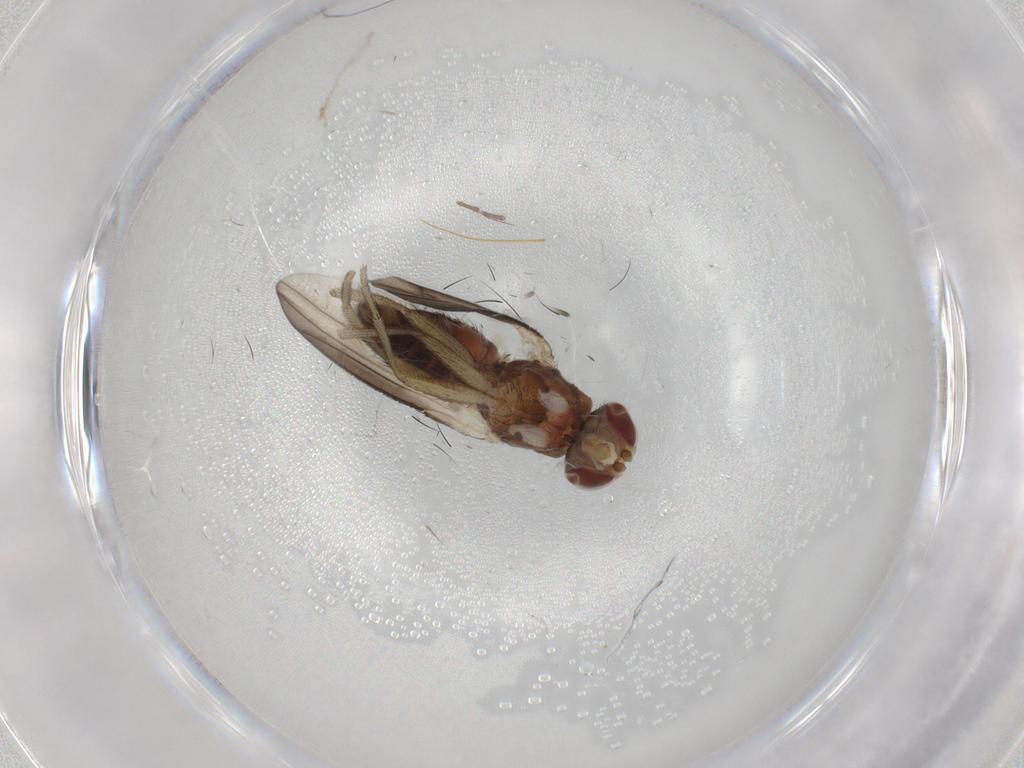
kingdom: Animalia
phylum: Arthropoda
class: Insecta
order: Diptera
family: Heleomyzidae
